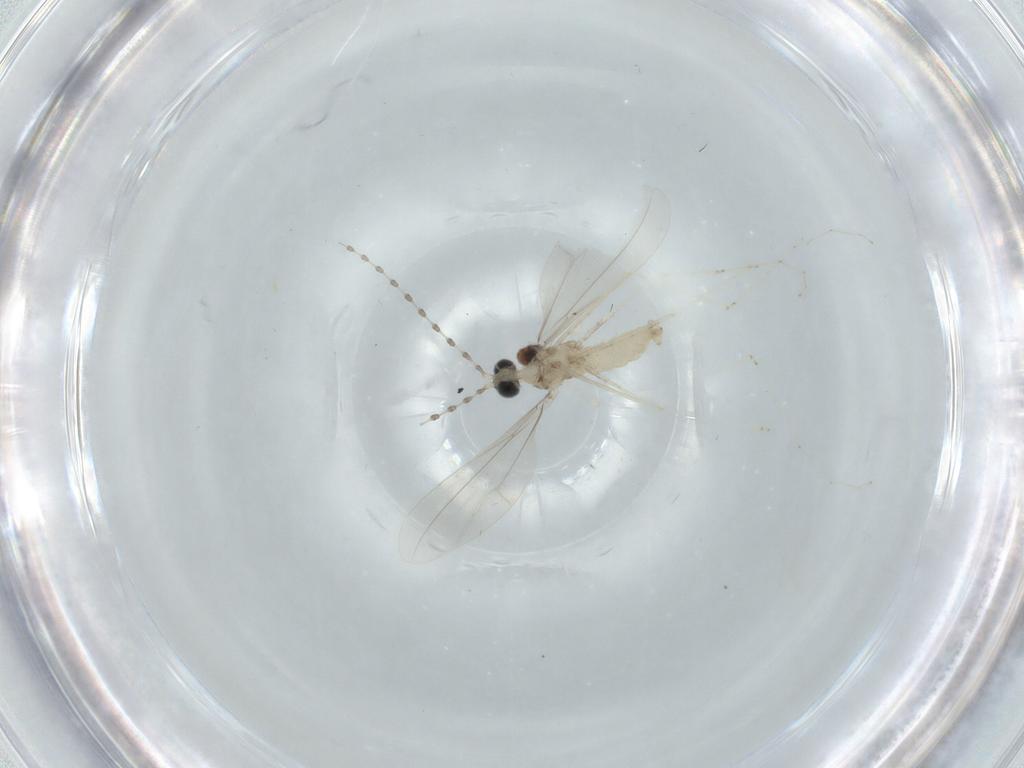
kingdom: Animalia
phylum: Arthropoda
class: Insecta
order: Diptera
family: Cecidomyiidae
